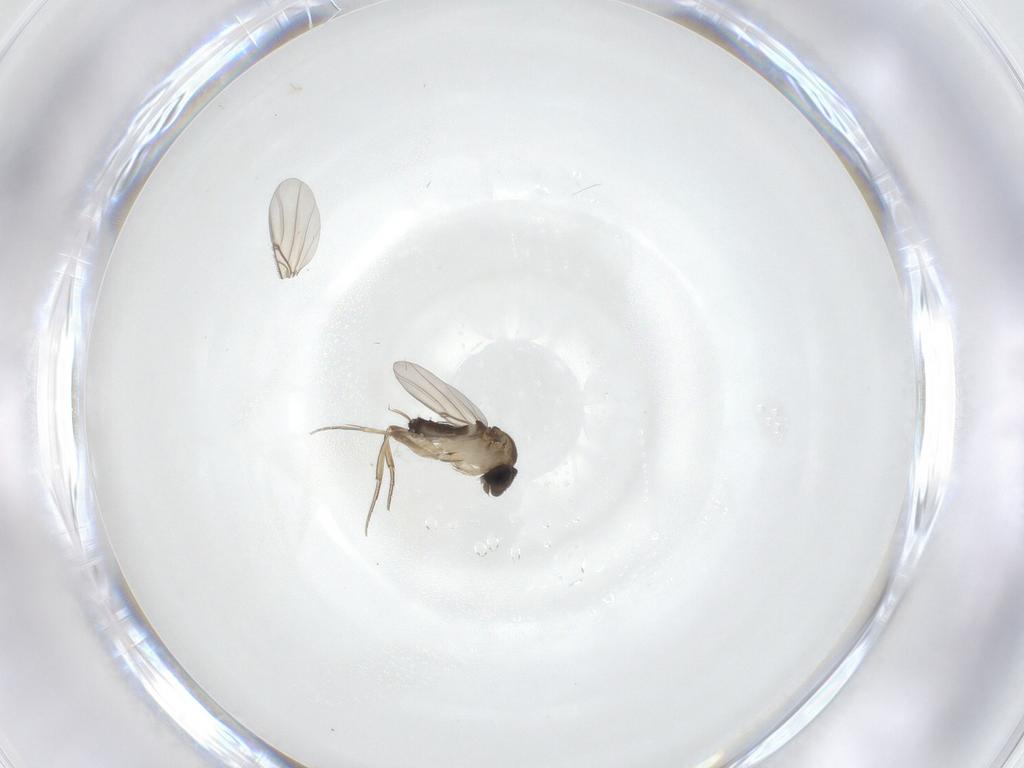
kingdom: Animalia
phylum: Arthropoda
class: Insecta
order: Diptera
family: Phoridae
